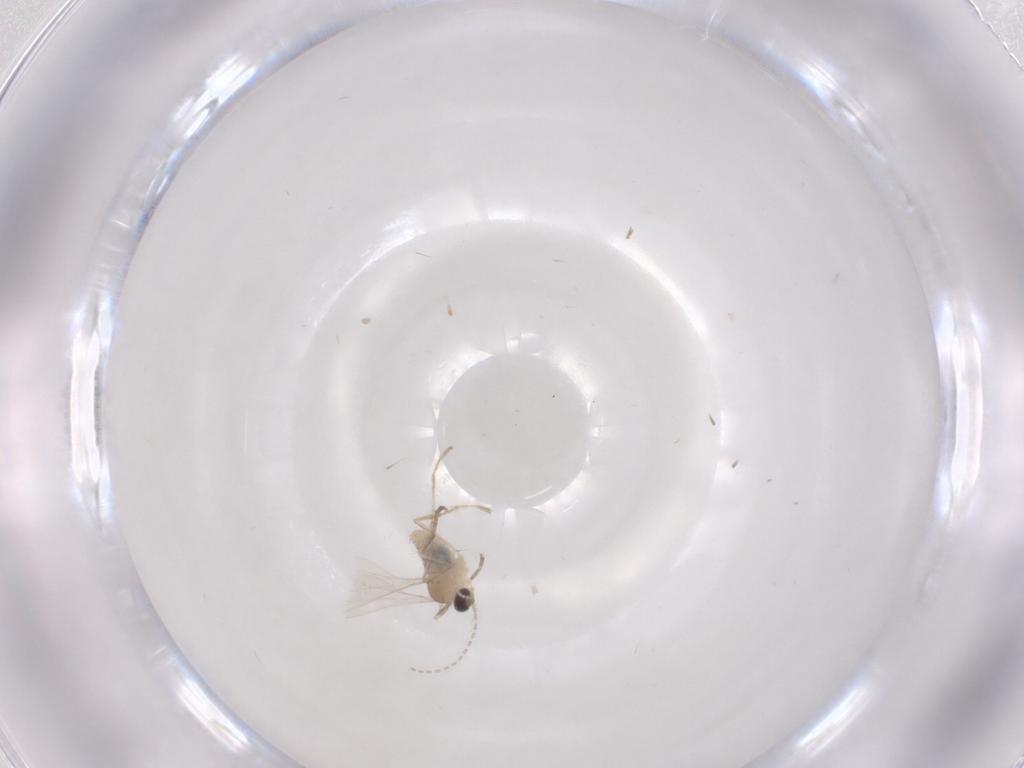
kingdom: Animalia
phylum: Arthropoda
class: Insecta
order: Diptera
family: Cecidomyiidae
